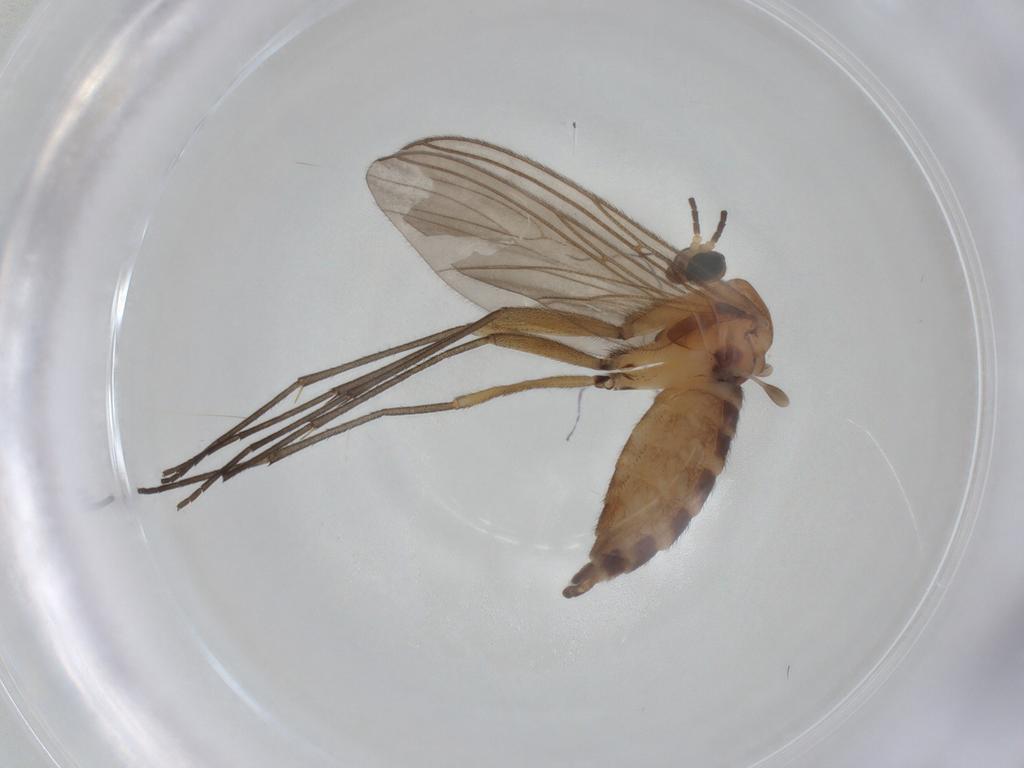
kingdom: Animalia
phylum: Arthropoda
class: Insecta
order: Diptera
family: Sciaridae
